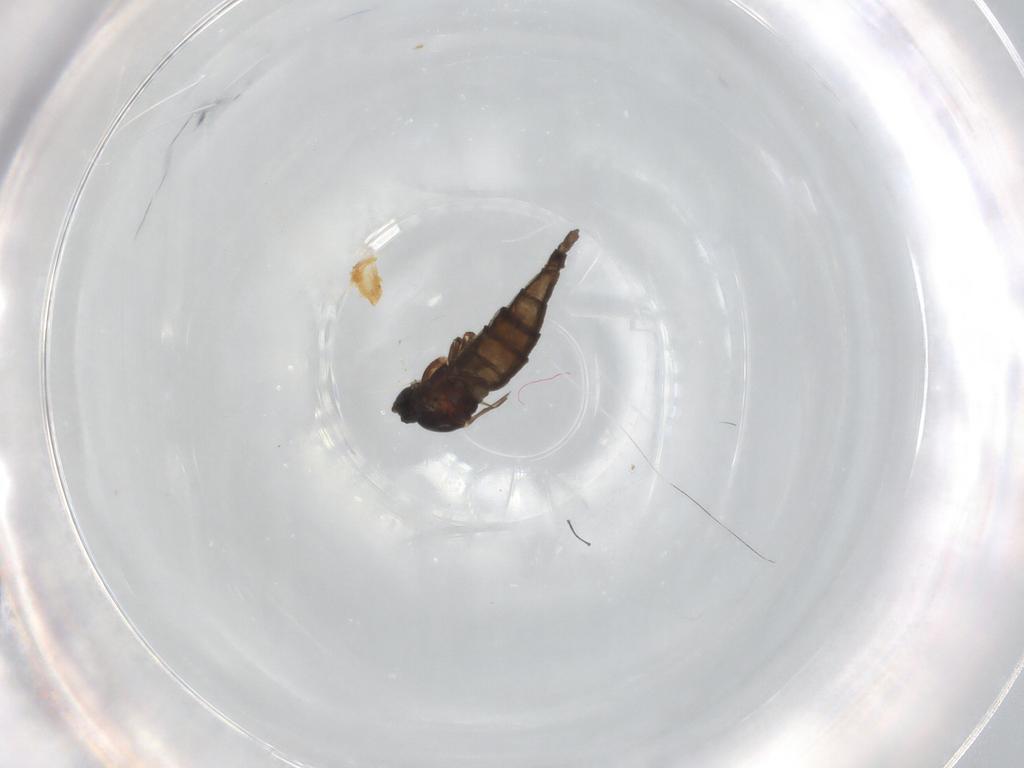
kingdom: Animalia
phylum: Arthropoda
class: Insecta
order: Diptera
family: Sciaridae
